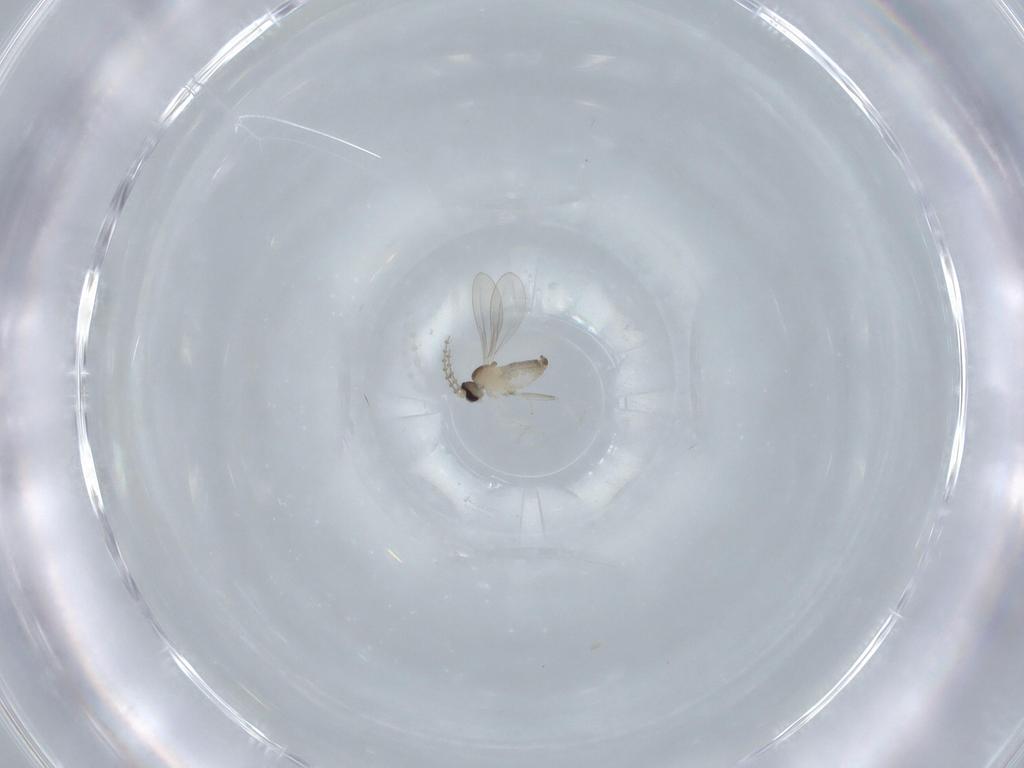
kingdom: Animalia
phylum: Arthropoda
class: Insecta
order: Diptera
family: Cecidomyiidae
